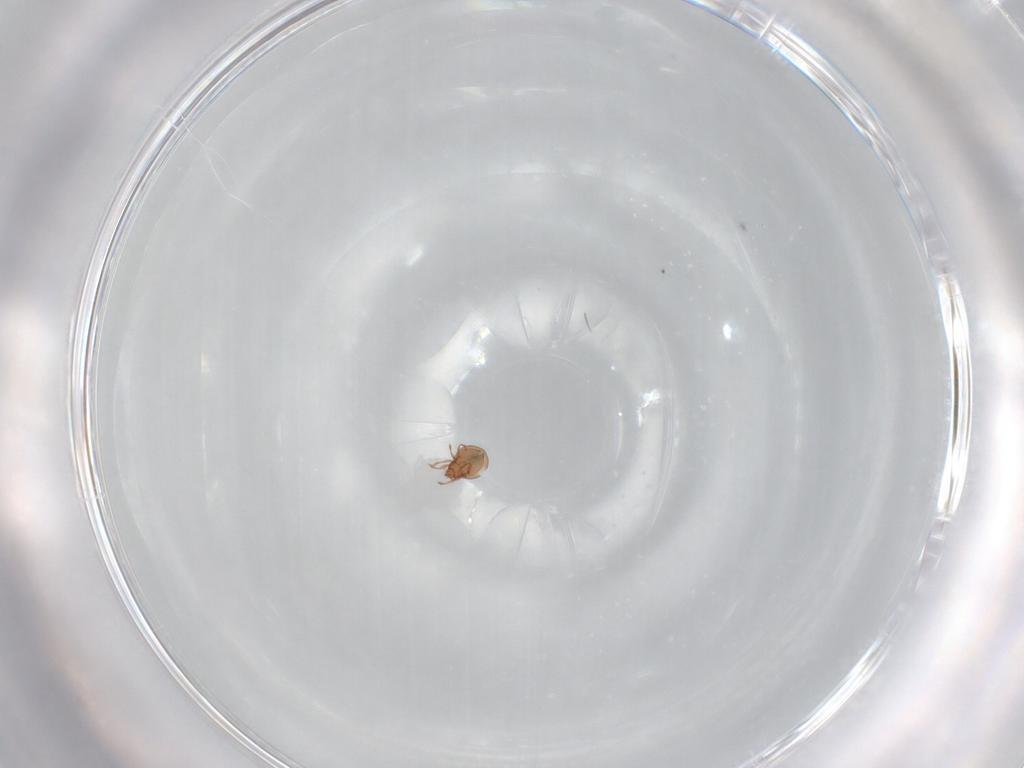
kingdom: Animalia
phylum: Arthropoda
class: Arachnida
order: Sarcoptiformes
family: Scheloribatidae
